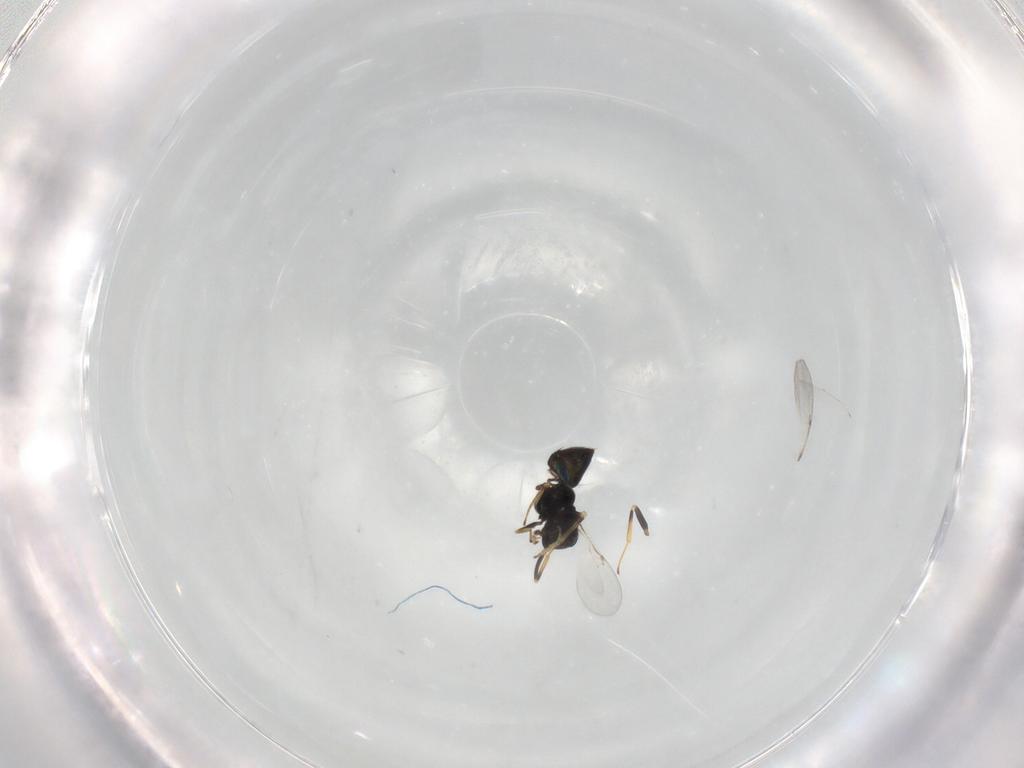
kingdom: Animalia
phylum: Arthropoda
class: Insecta
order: Hymenoptera
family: Encyrtidae
